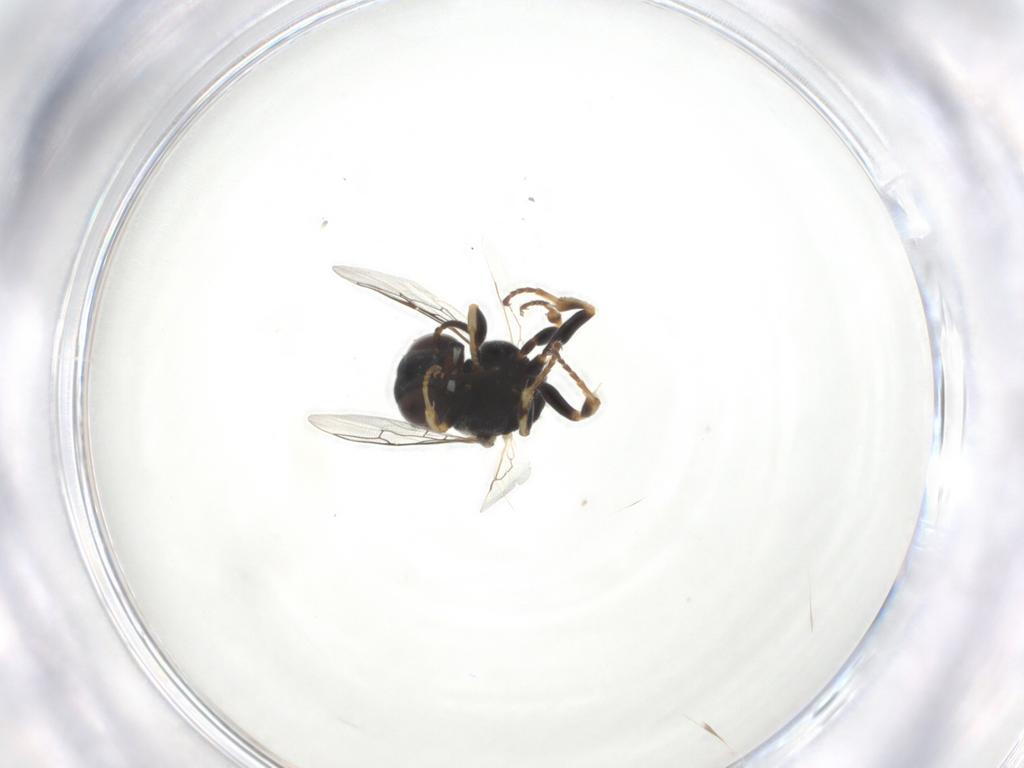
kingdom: Animalia
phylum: Arthropoda
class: Insecta
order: Hymenoptera
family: Crabronidae
